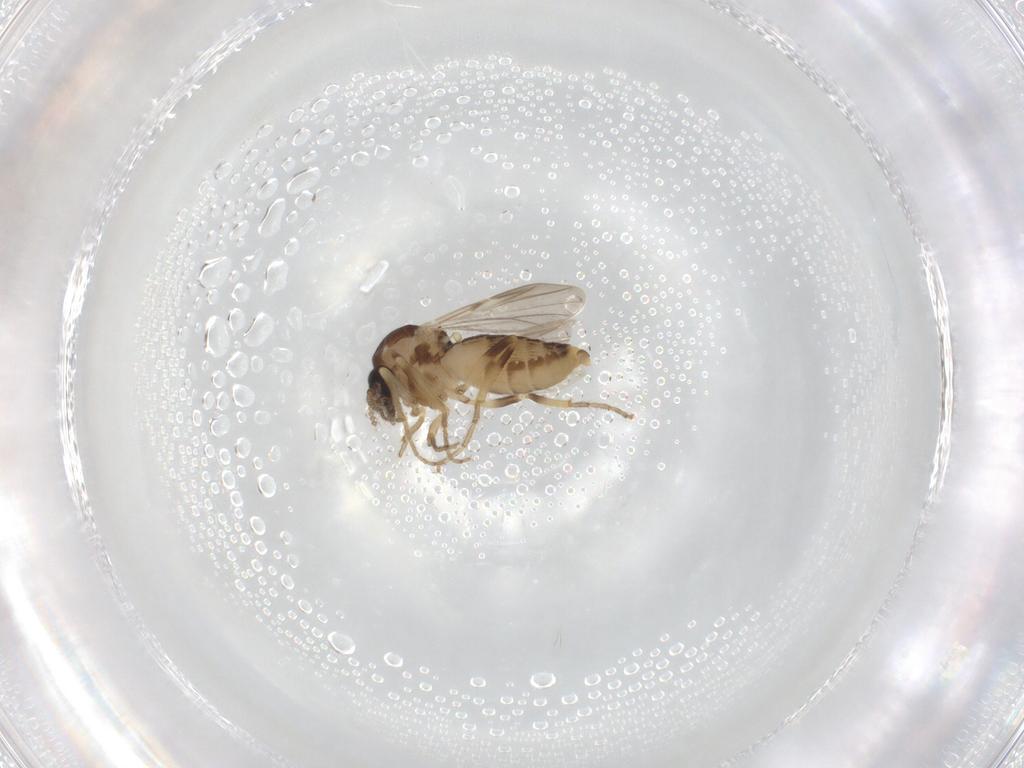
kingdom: Animalia
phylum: Arthropoda
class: Insecta
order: Diptera
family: Ceratopogonidae
